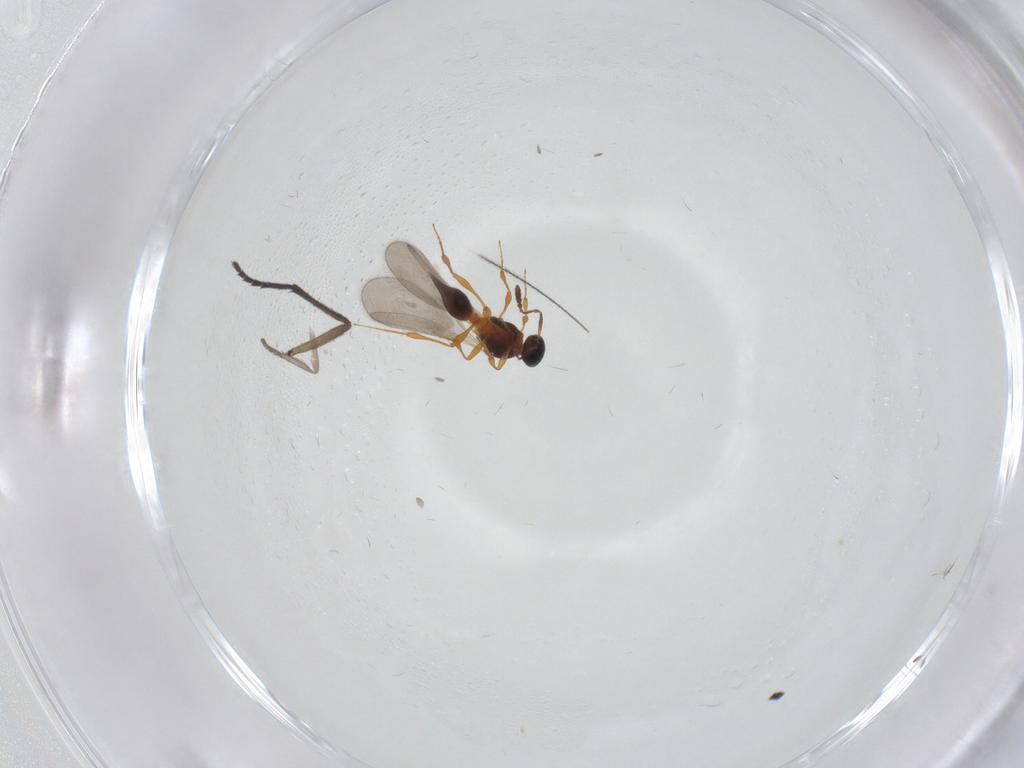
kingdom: Animalia
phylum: Arthropoda
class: Insecta
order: Hymenoptera
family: Platygastridae
